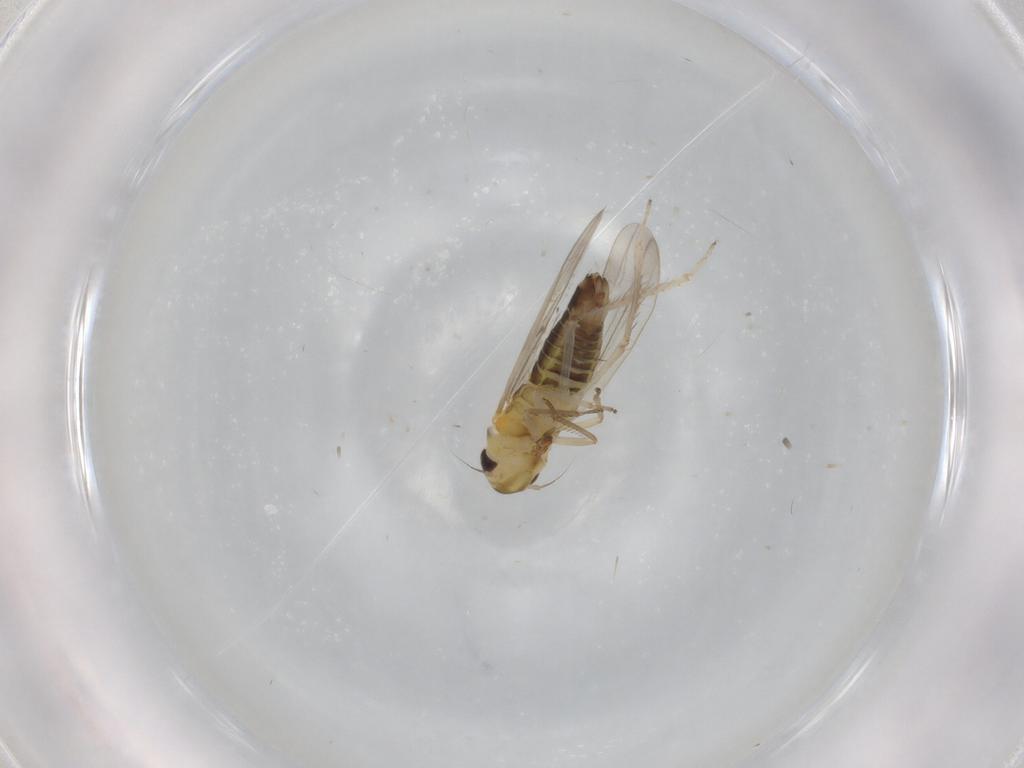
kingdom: Animalia
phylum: Arthropoda
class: Insecta
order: Hemiptera
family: Cicadellidae
